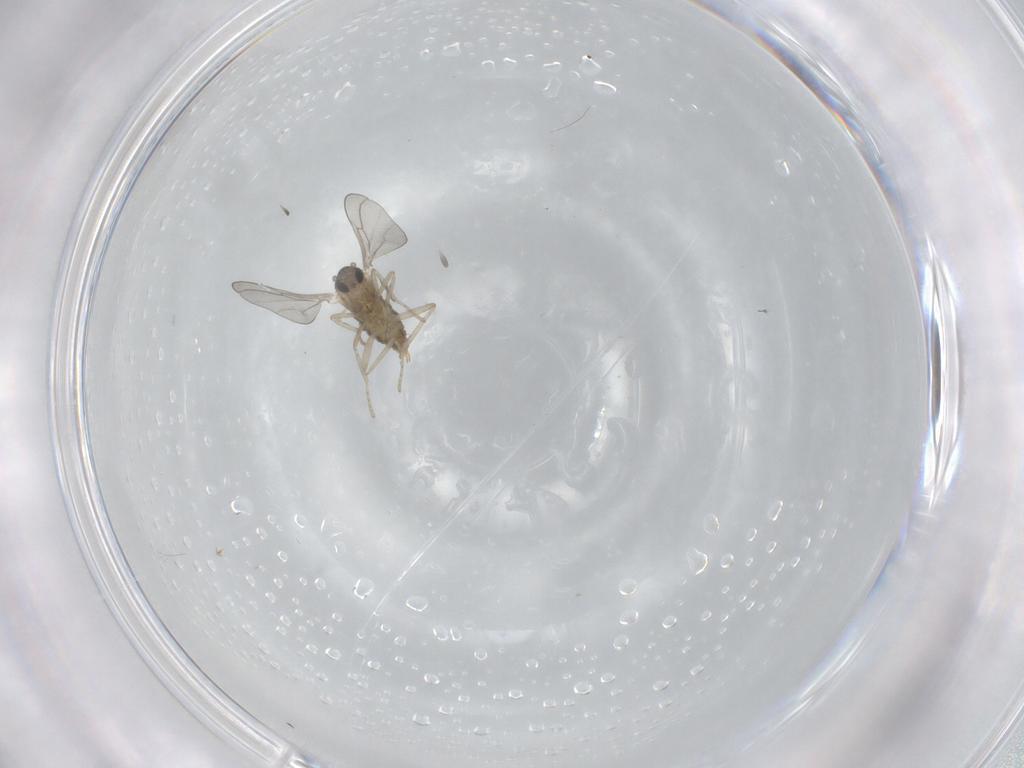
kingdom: Animalia
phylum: Arthropoda
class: Insecta
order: Diptera
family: Cecidomyiidae
